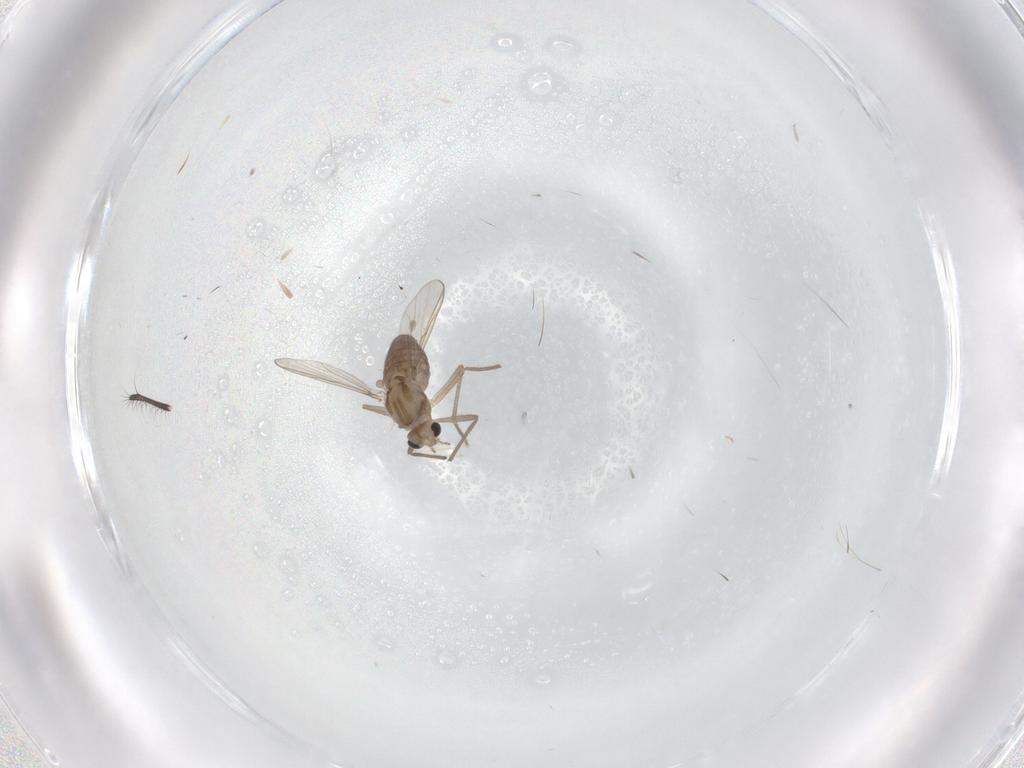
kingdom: Animalia
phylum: Arthropoda
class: Insecta
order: Diptera
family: Chironomidae
